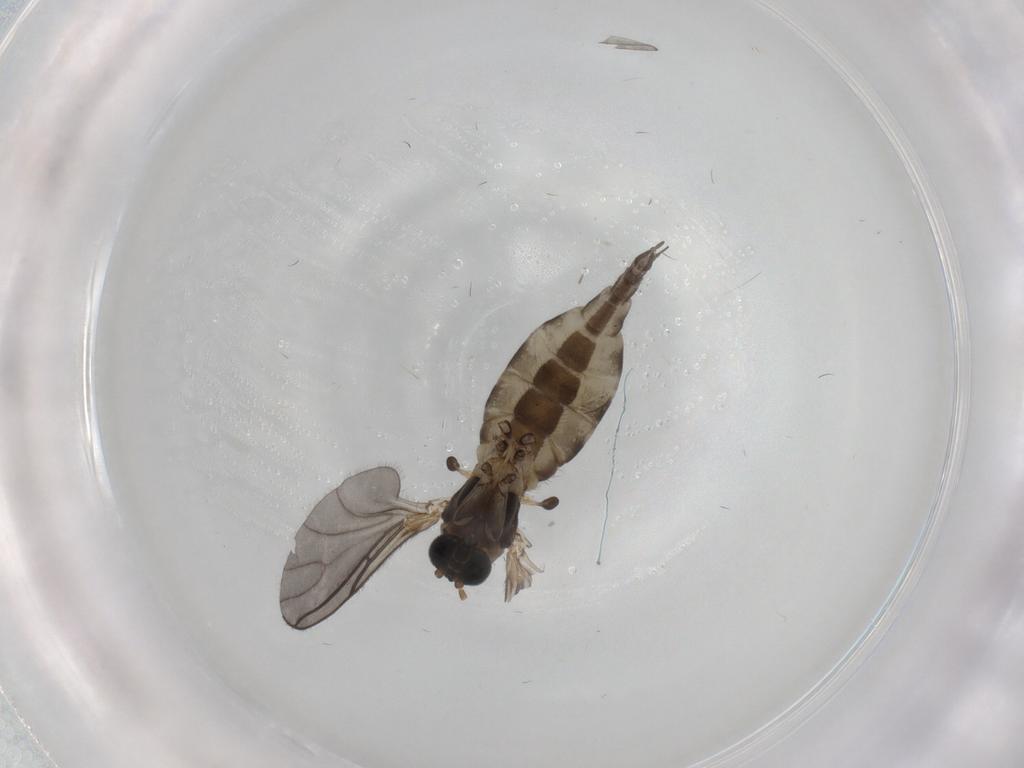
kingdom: Animalia
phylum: Arthropoda
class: Insecta
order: Diptera
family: Sciaridae
